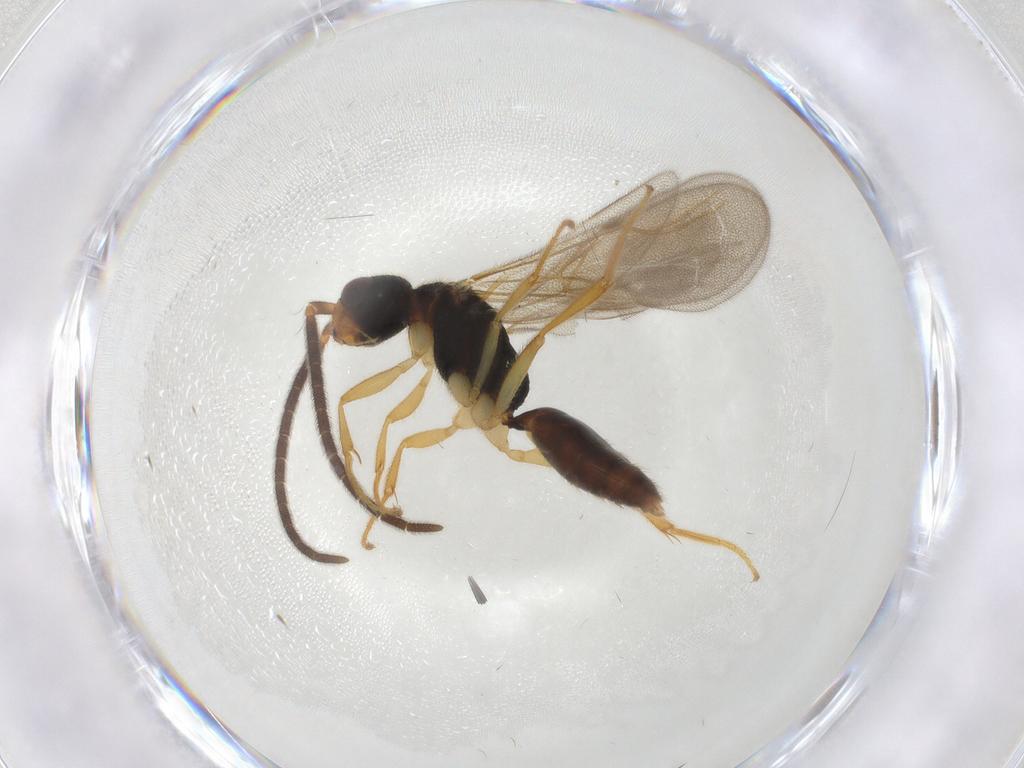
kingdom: Animalia
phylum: Arthropoda
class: Insecta
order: Hymenoptera
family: Bethylidae
